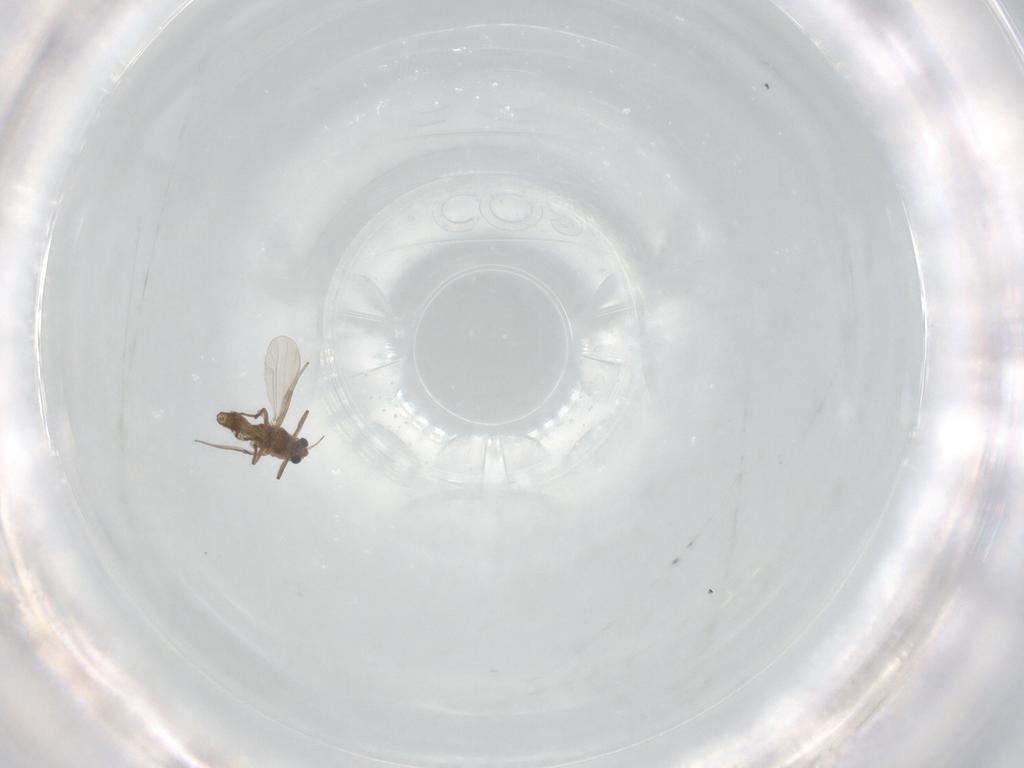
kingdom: Animalia
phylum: Arthropoda
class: Insecta
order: Diptera
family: Chironomidae
